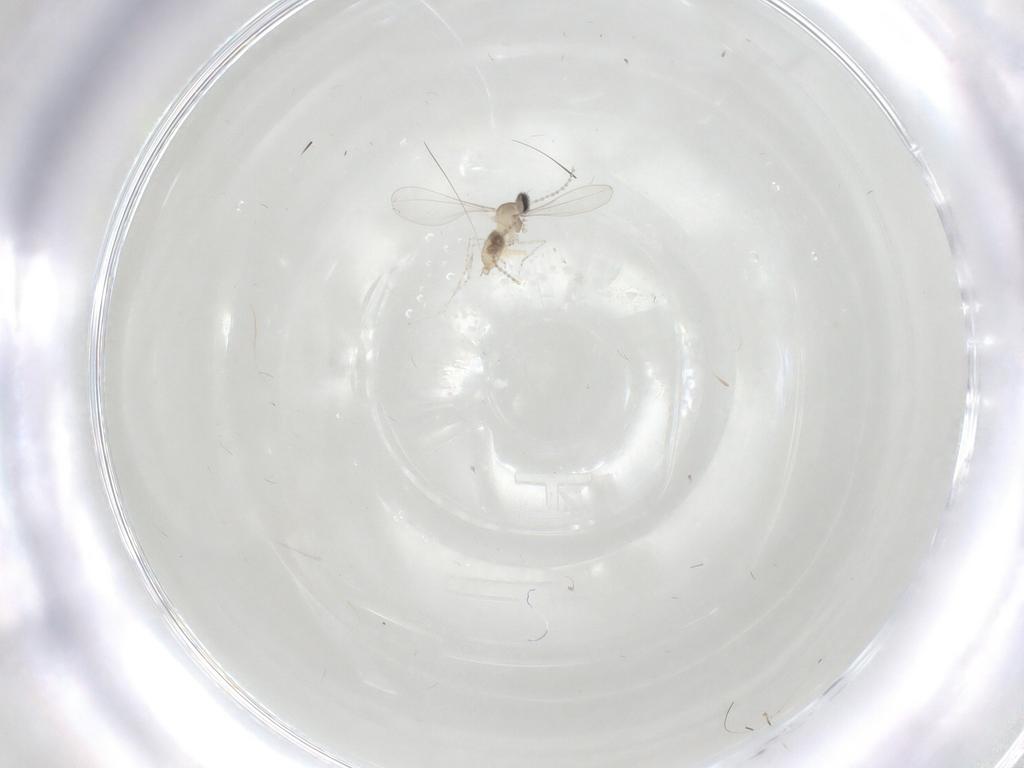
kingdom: Animalia
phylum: Arthropoda
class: Insecta
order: Diptera
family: Cecidomyiidae
